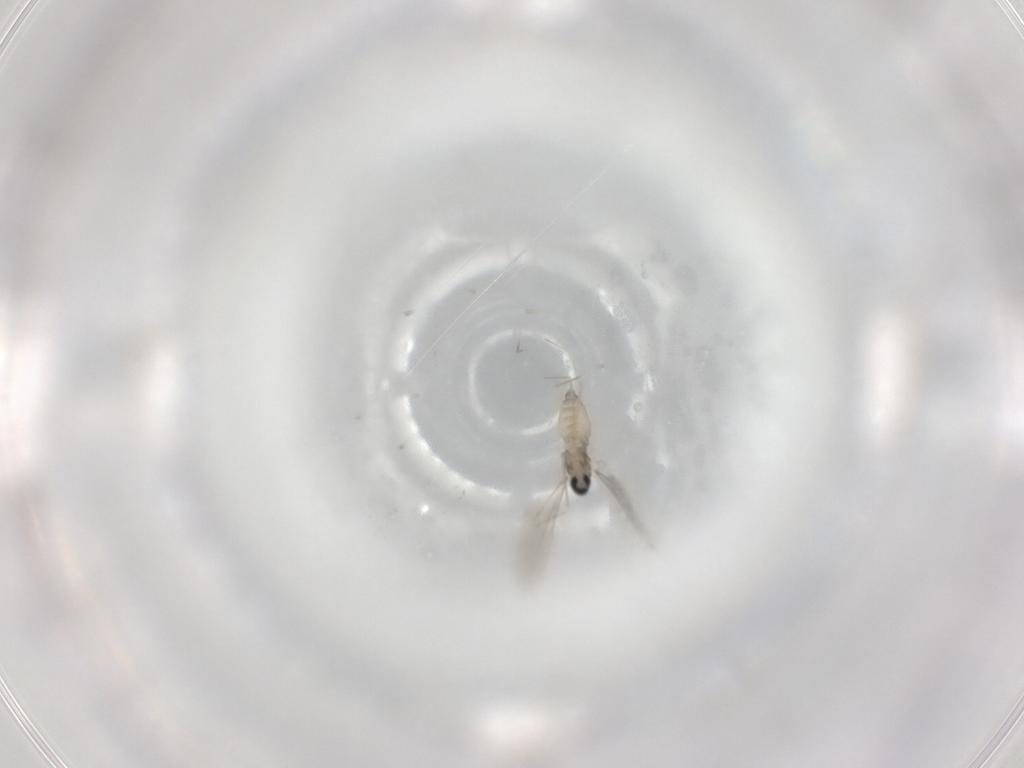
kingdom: Animalia
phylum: Arthropoda
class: Insecta
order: Diptera
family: Cecidomyiidae
